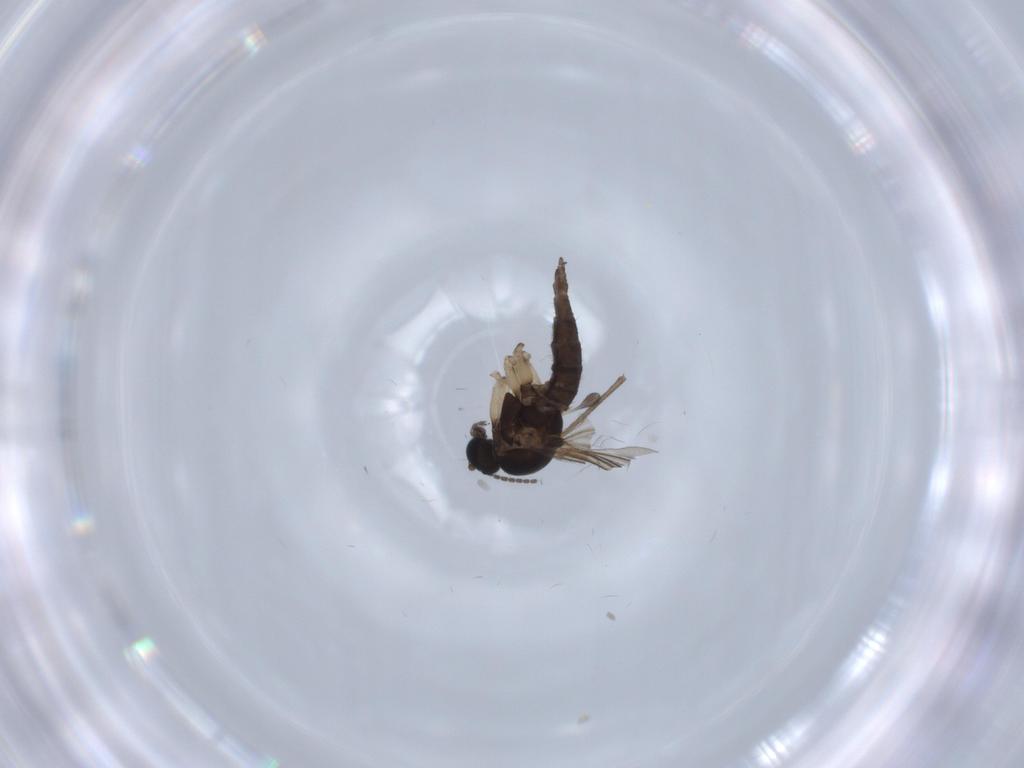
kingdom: Animalia
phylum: Arthropoda
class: Insecta
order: Diptera
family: Sciaridae
